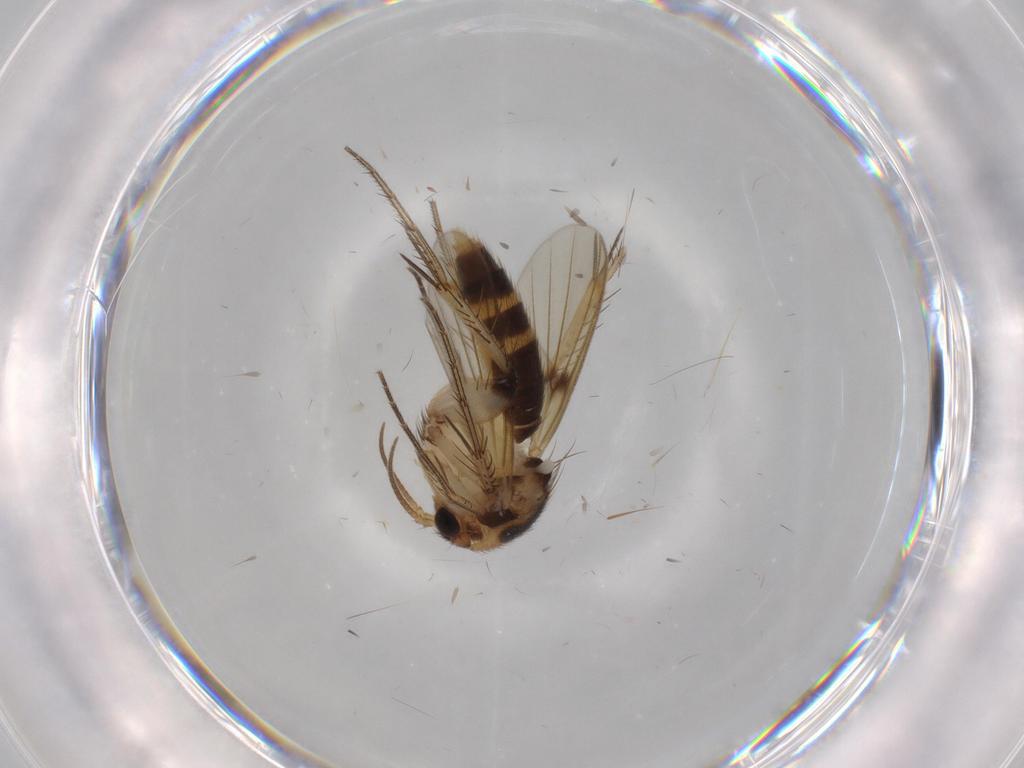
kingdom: Animalia
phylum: Arthropoda
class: Insecta
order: Diptera
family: Mycetophilidae
